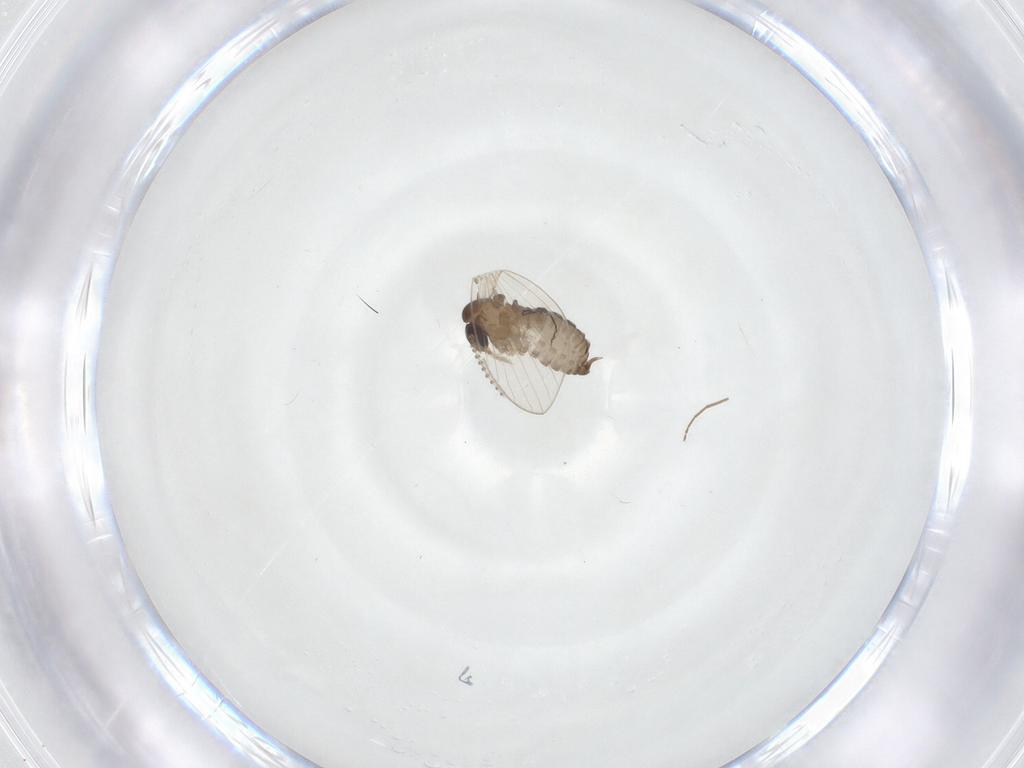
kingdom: Animalia
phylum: Arthropoda
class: Insecta
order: Diptera
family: Psychodidae
